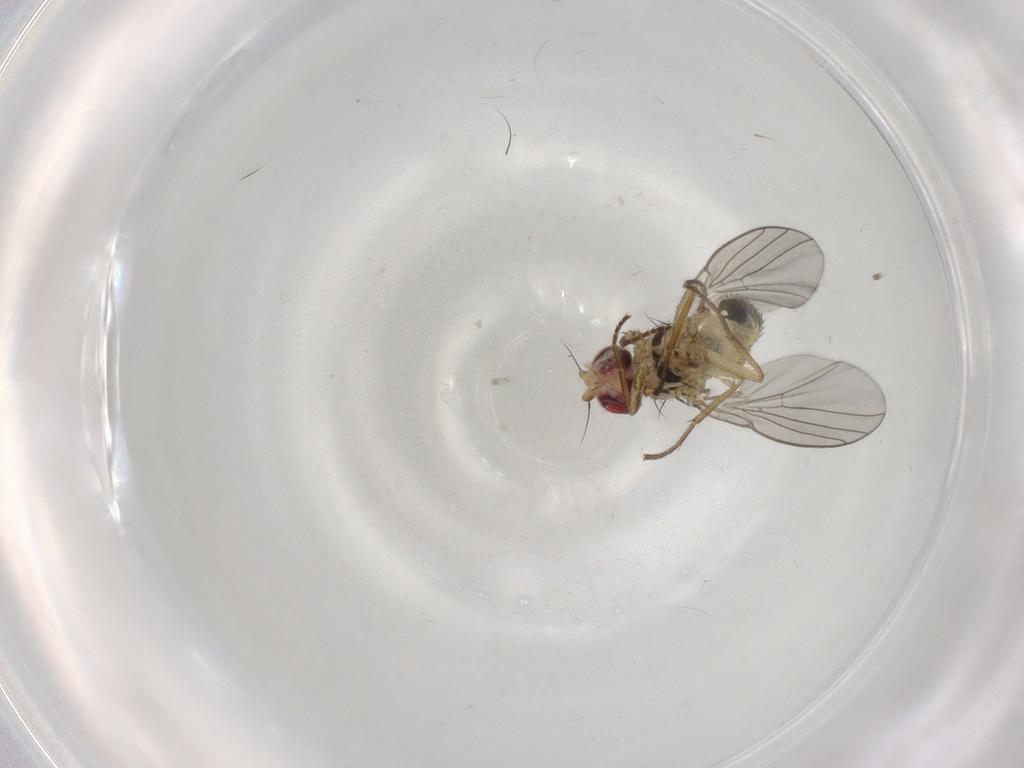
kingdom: Animalia
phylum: Arthropoda
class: Insecta
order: Diptera
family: Agromyzidae
